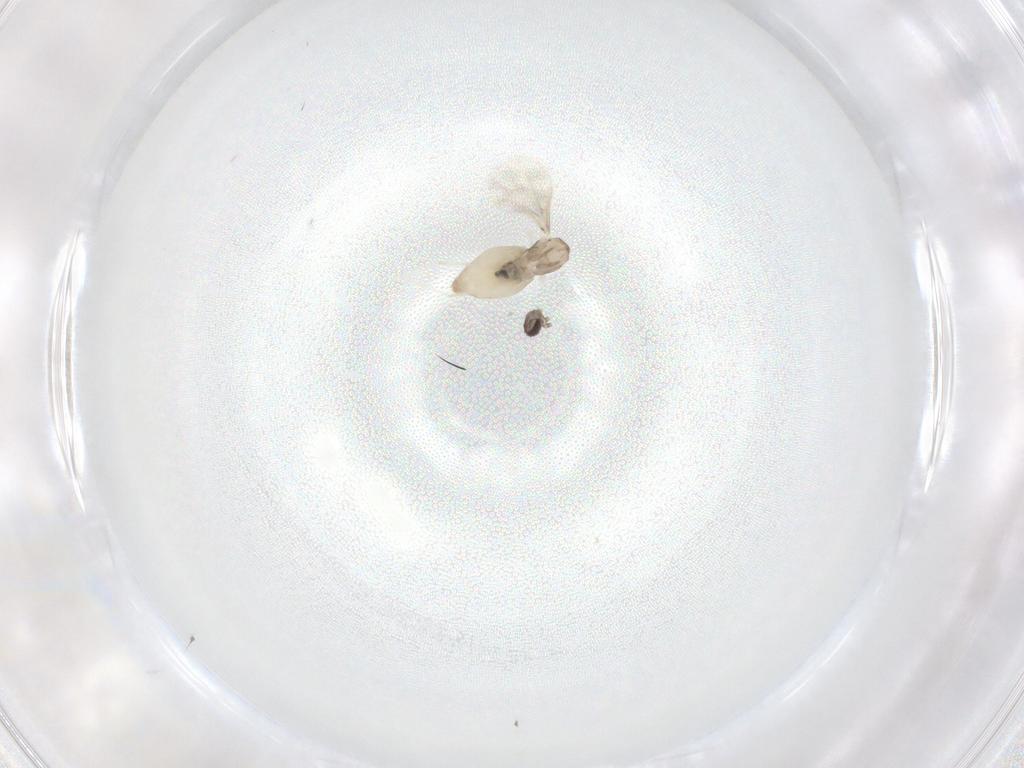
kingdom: Animalia
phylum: Arthropoda
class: Insecta
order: Diptera
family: Cecidomyiidae
